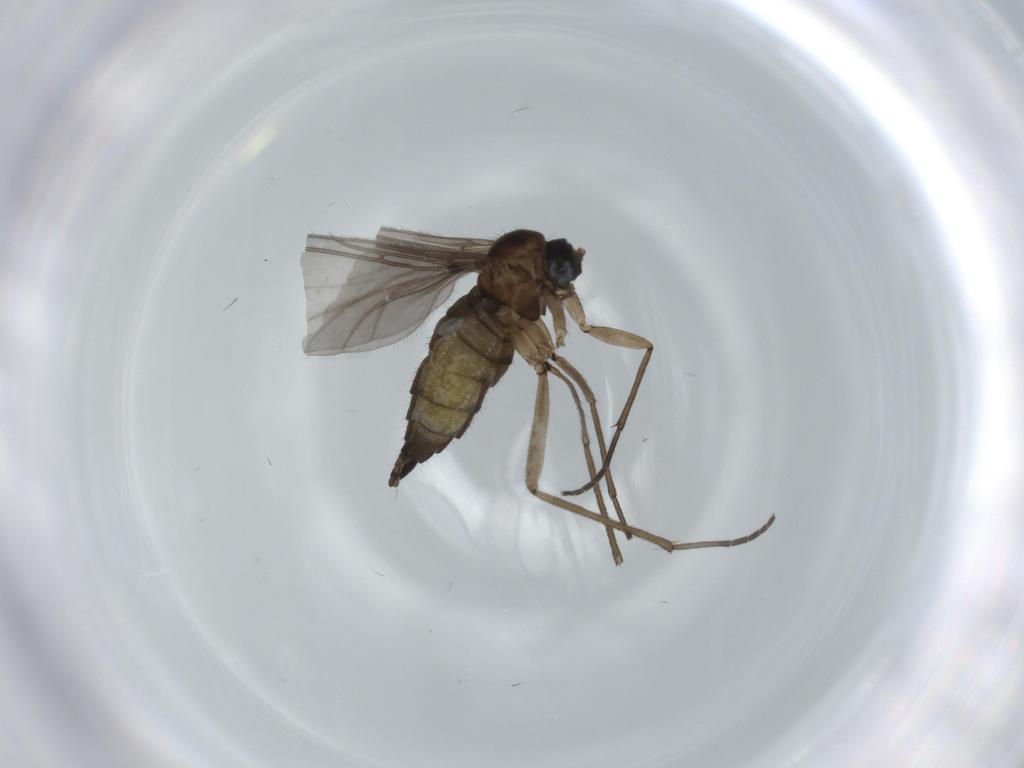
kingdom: Animalia
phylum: Arthropoda
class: Insecta
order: Diptera
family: Sciaridae
